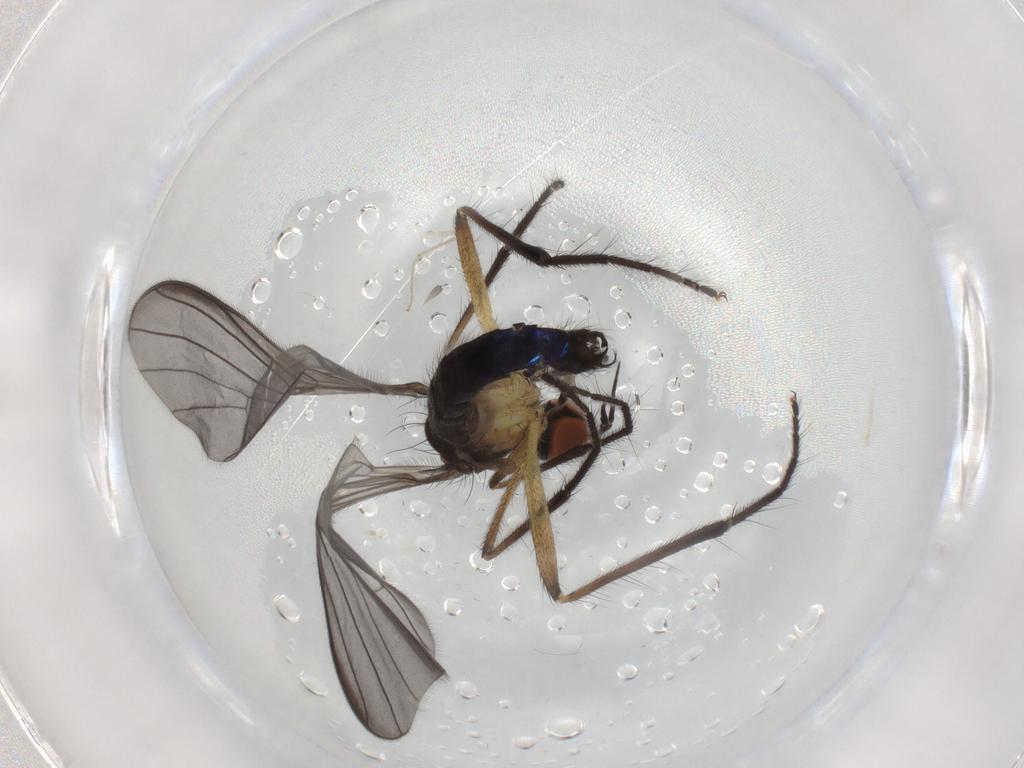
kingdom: Animalia
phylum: Arthropoda
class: Insecta
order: Diptera
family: Empididae
